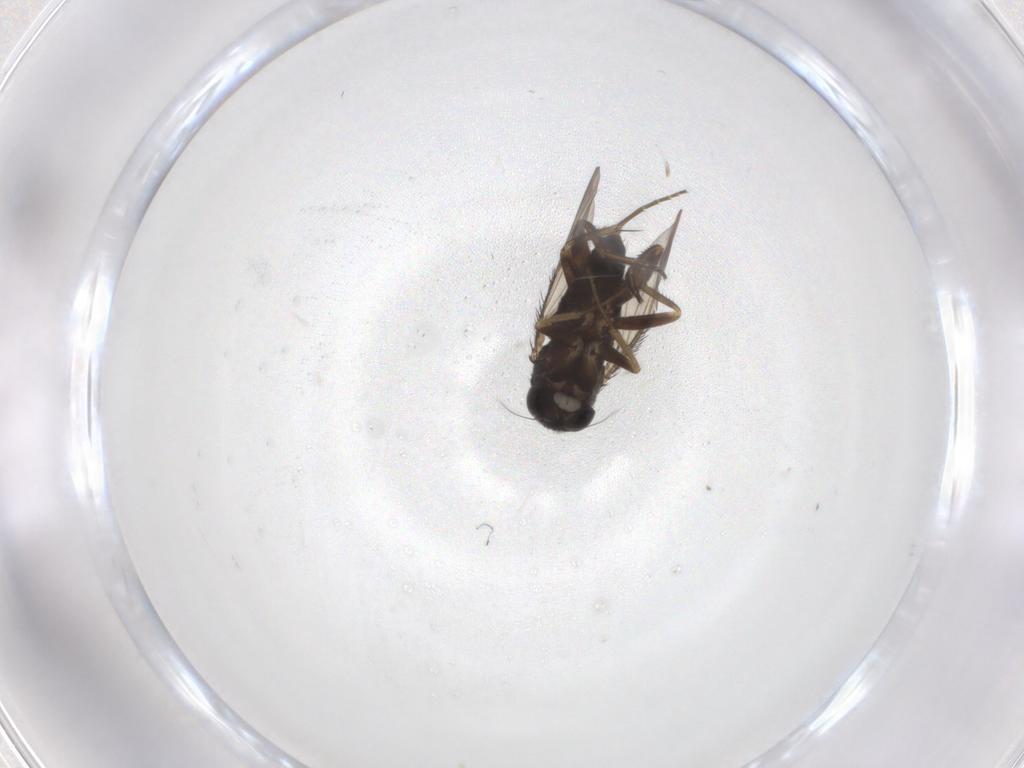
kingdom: Animalia
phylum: Arthropoda
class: Insecta
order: Diptera
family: Phoridae
